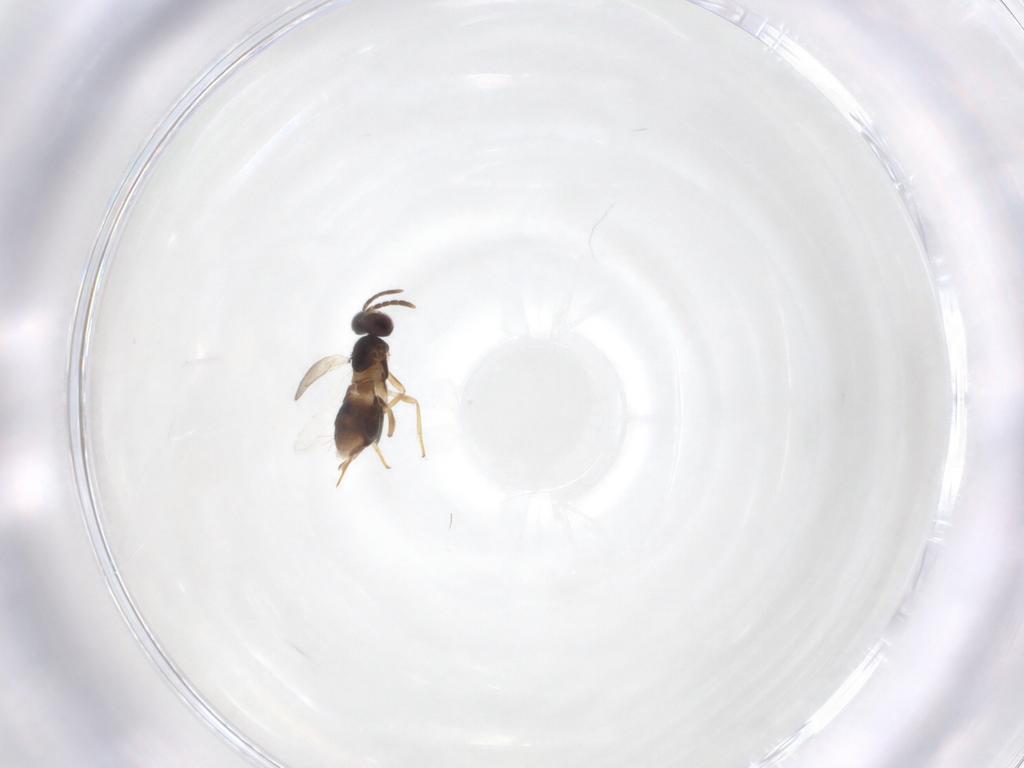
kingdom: Animalia
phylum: Arthropoda
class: Insecta
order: Hymenoptera
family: Aphelinidae
